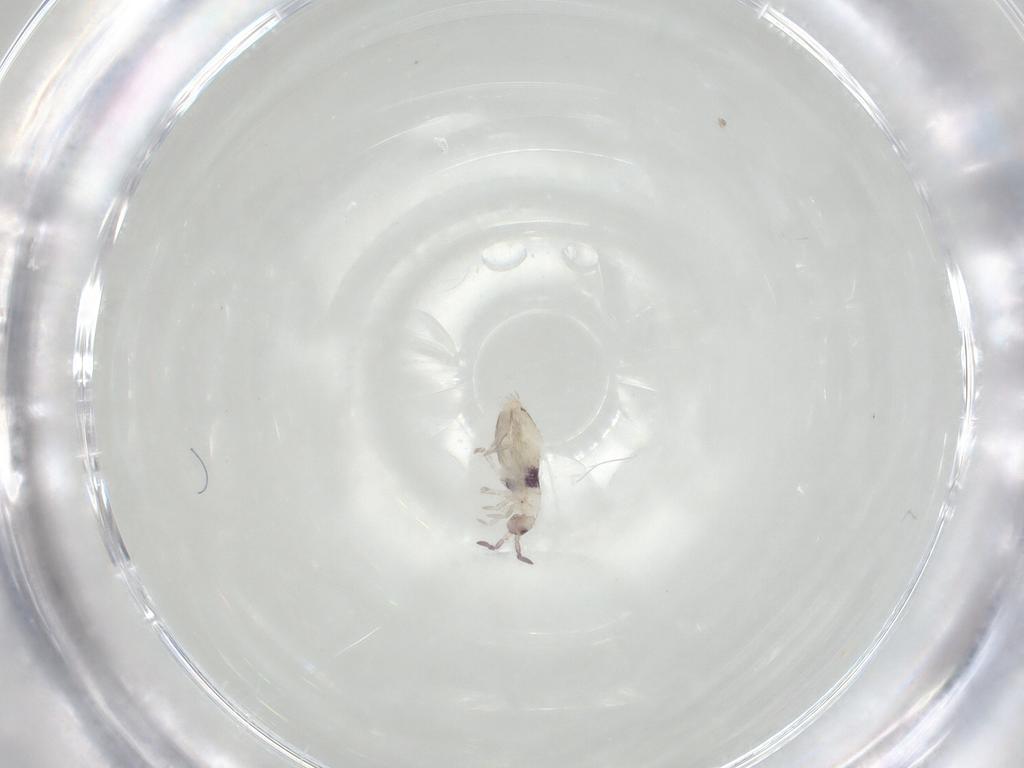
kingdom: Animalia
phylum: Arthropoda
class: Collembola
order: Entomobryomorpha
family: Entomobryidae
